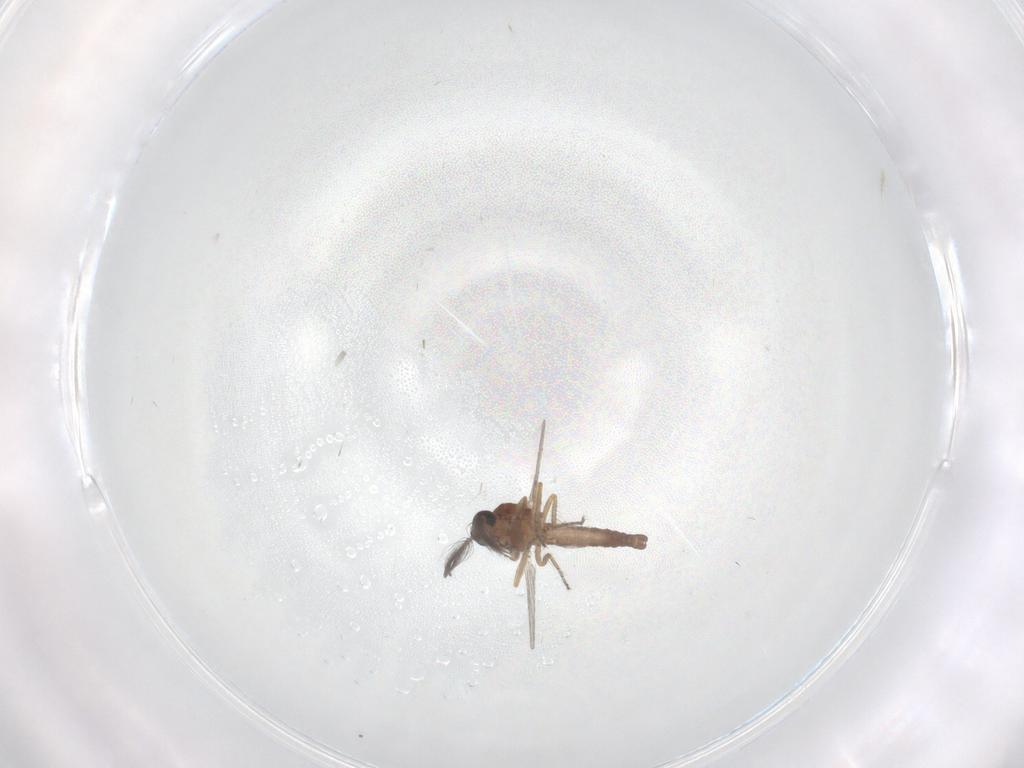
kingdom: Animalia
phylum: Arthropoda
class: Insecta
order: Diptera
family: Ceratopogonidae
